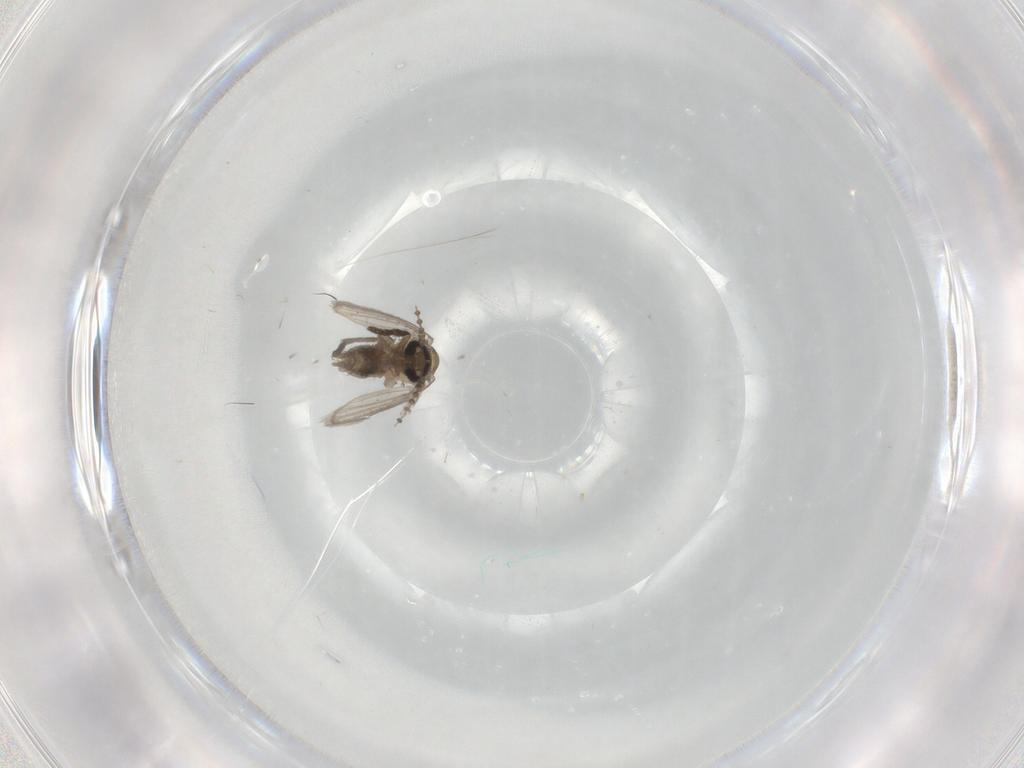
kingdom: Animalia
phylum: Arthropoda
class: Insecta
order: Diptera
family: Psychodidae
